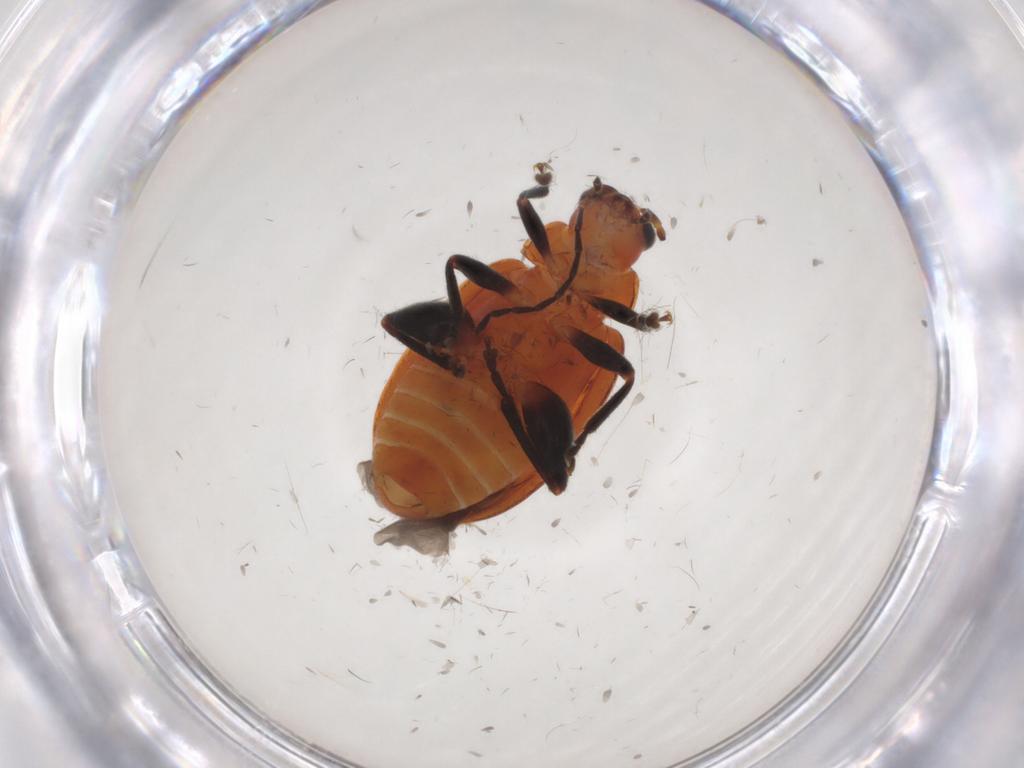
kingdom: Animalia
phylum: Arthropoda
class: Insecta
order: Coleoptera
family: Chrysomelidae
